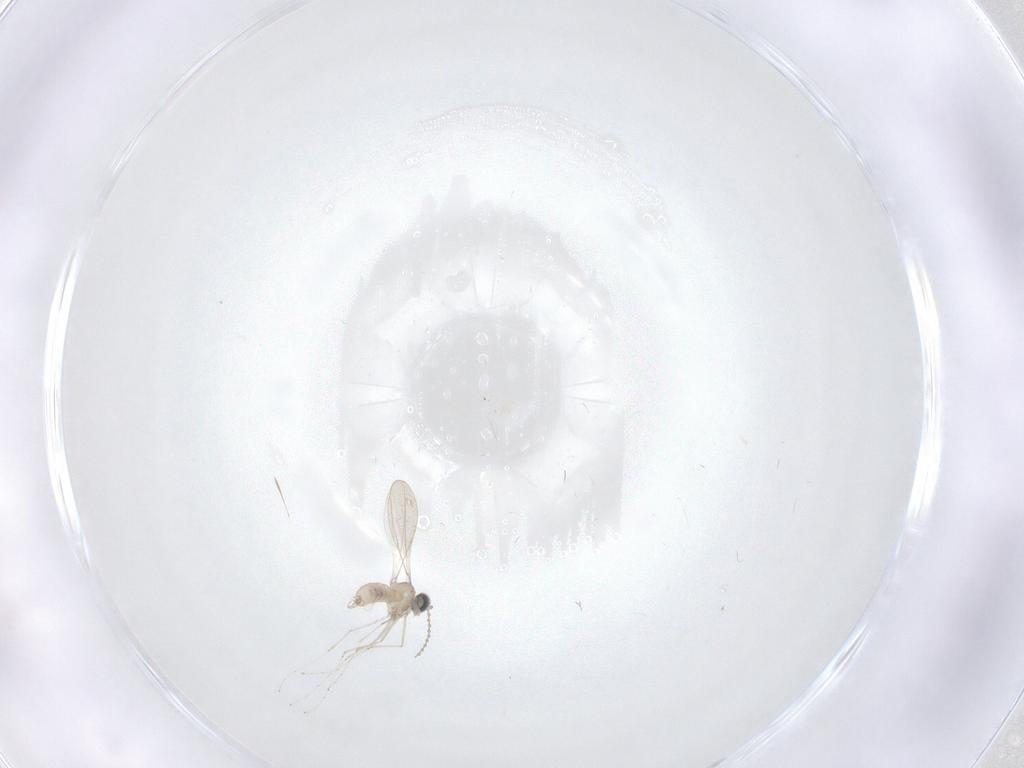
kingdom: Animalia
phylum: Arthropoda
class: Insecta
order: Diptera
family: Cecidomyiidae
